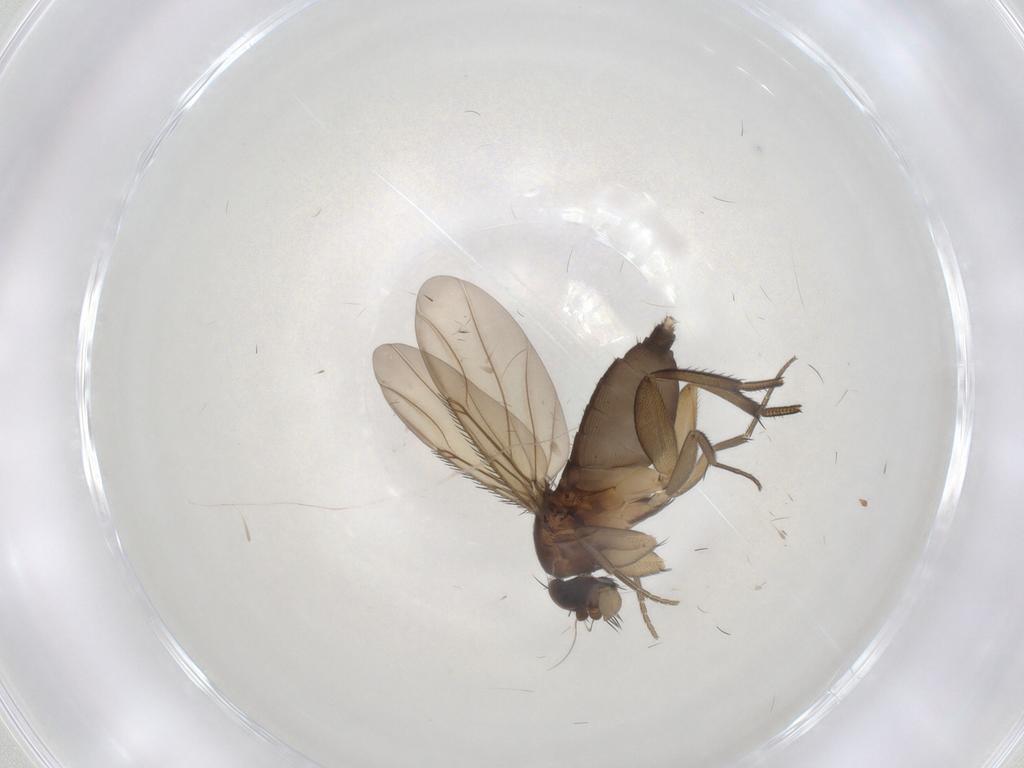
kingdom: Animalia
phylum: Arthropoda
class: Insecta
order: Diptera
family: Phoridae
